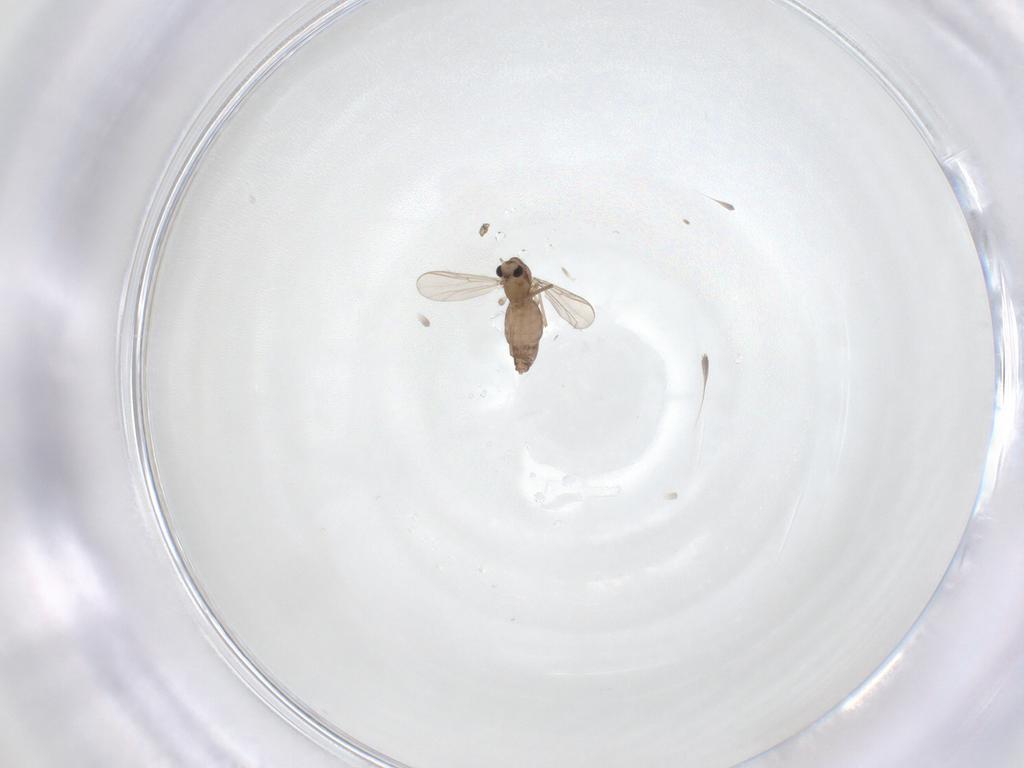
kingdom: Animalia
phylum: Arthropoda
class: Insecta
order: Diptera
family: Chironomidae
